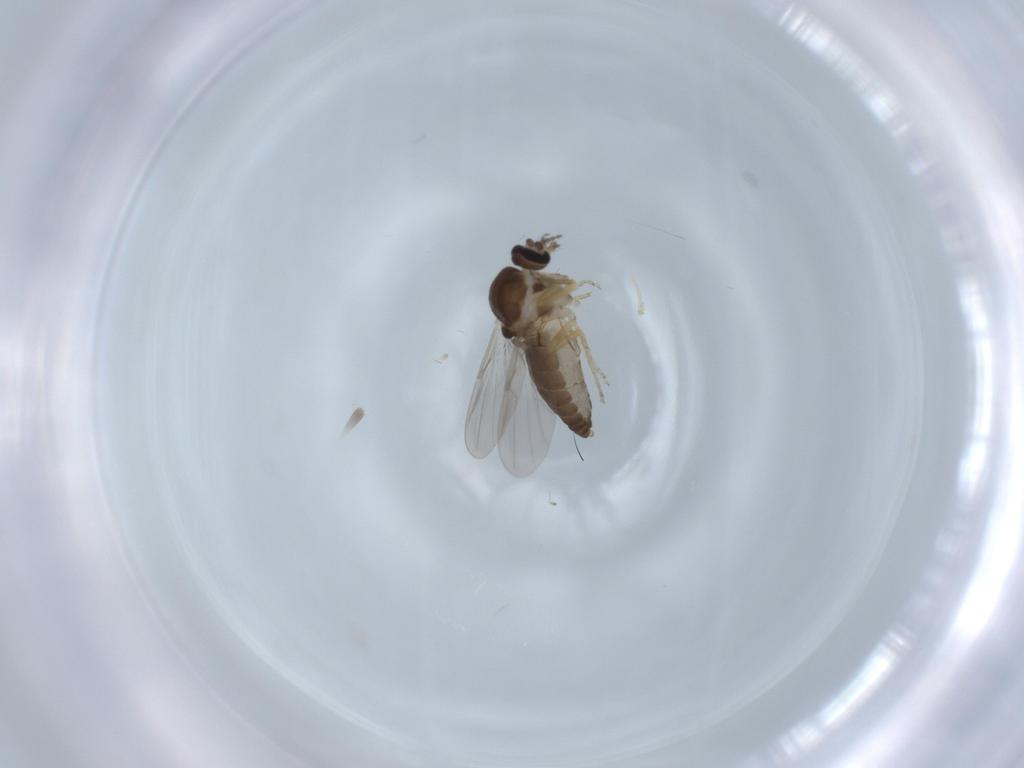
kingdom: Animalia
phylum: Arthropoda
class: Insecta
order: Diptera
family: Ceratopogonidae
